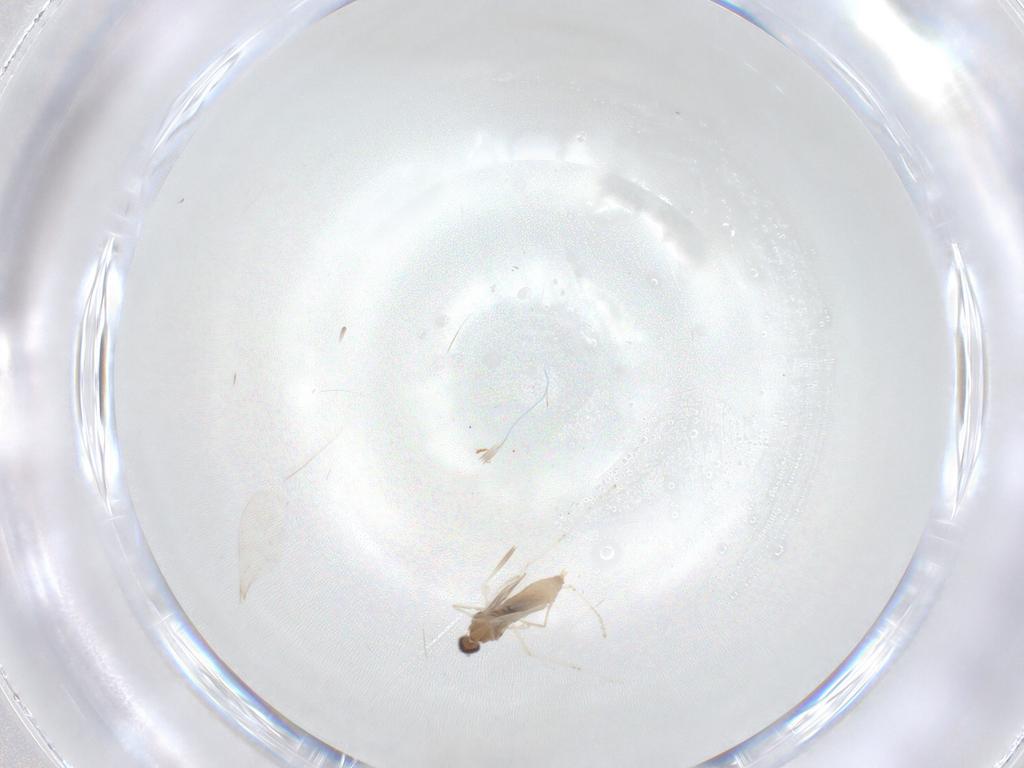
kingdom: Animalia
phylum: Arthropoda
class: Insecta
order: Diptera
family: Cecidomyiidae
